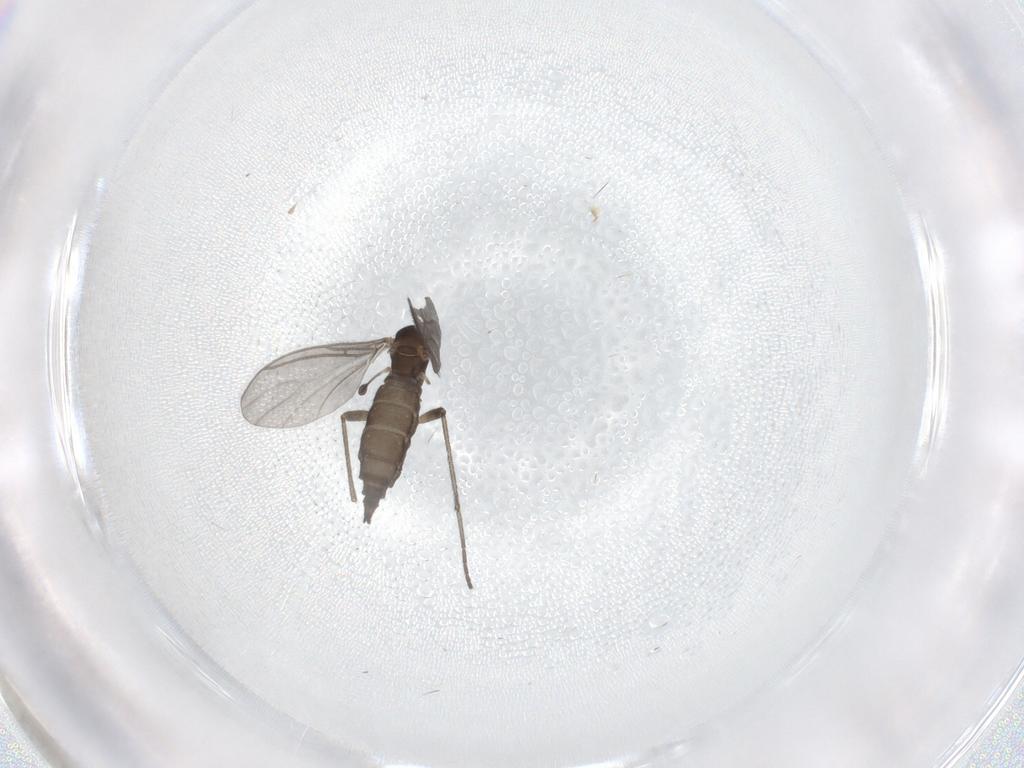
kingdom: Animalia
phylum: Arthropoda
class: Insecta
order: Diptera
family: Sciaridae
